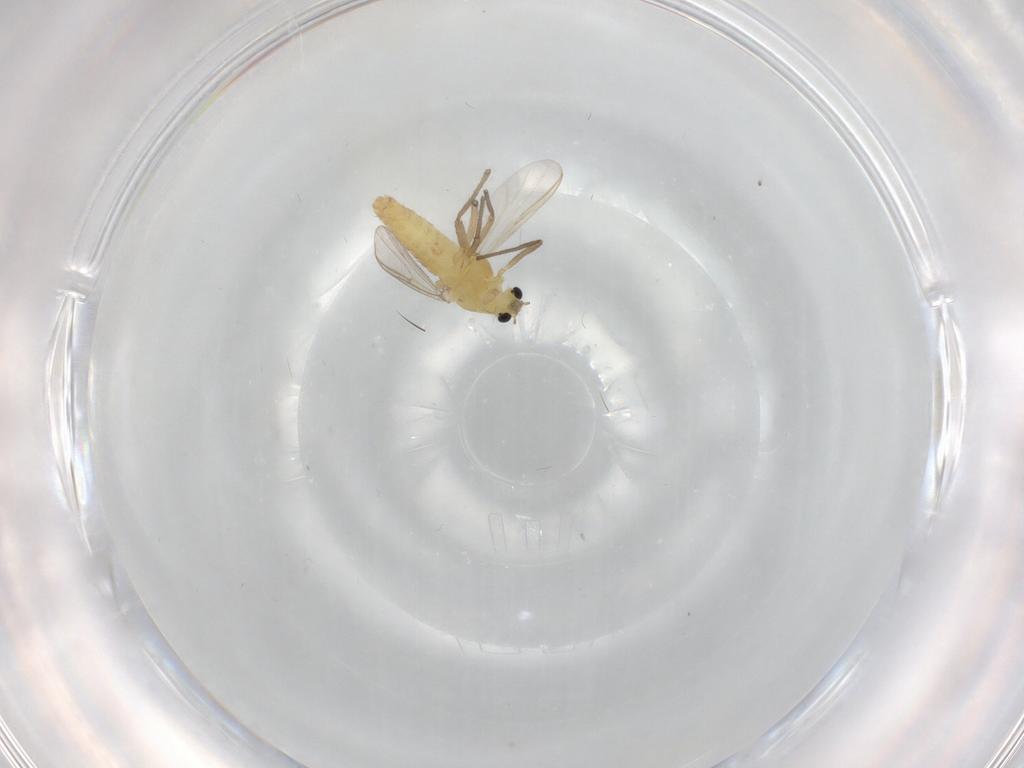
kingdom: Animalia
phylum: Arthropoda
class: Insecta
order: Diptera
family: Chironomidae
